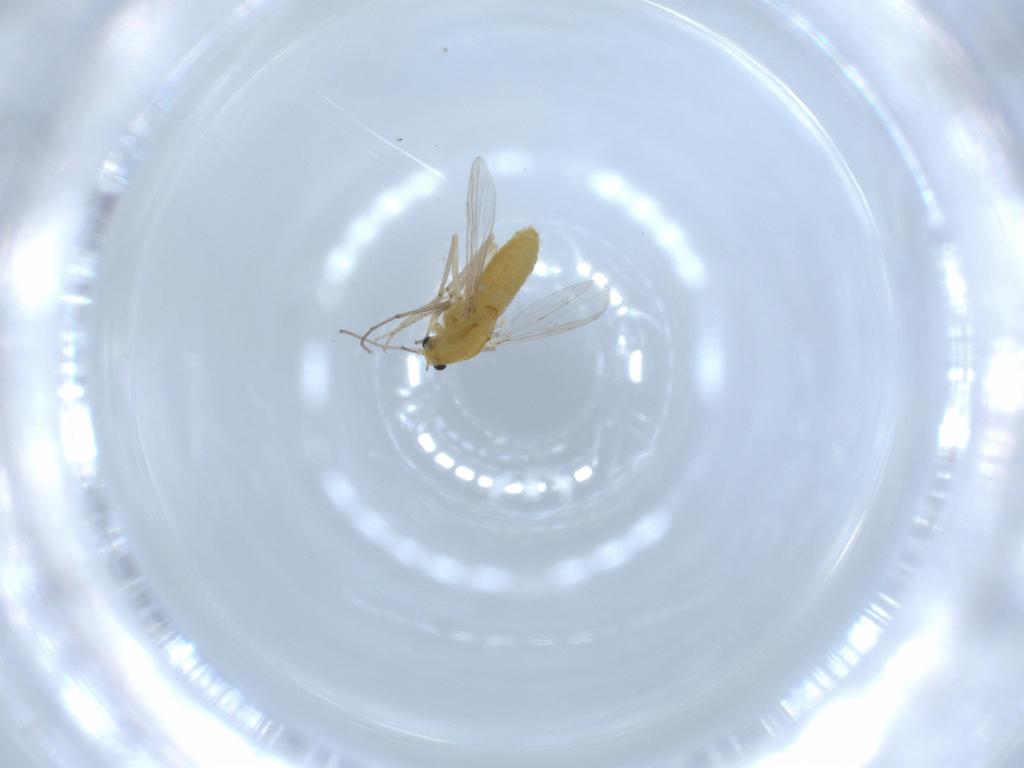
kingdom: Animalia
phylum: Arthropoda
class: Insecta
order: Diptera
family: Chironomidae
